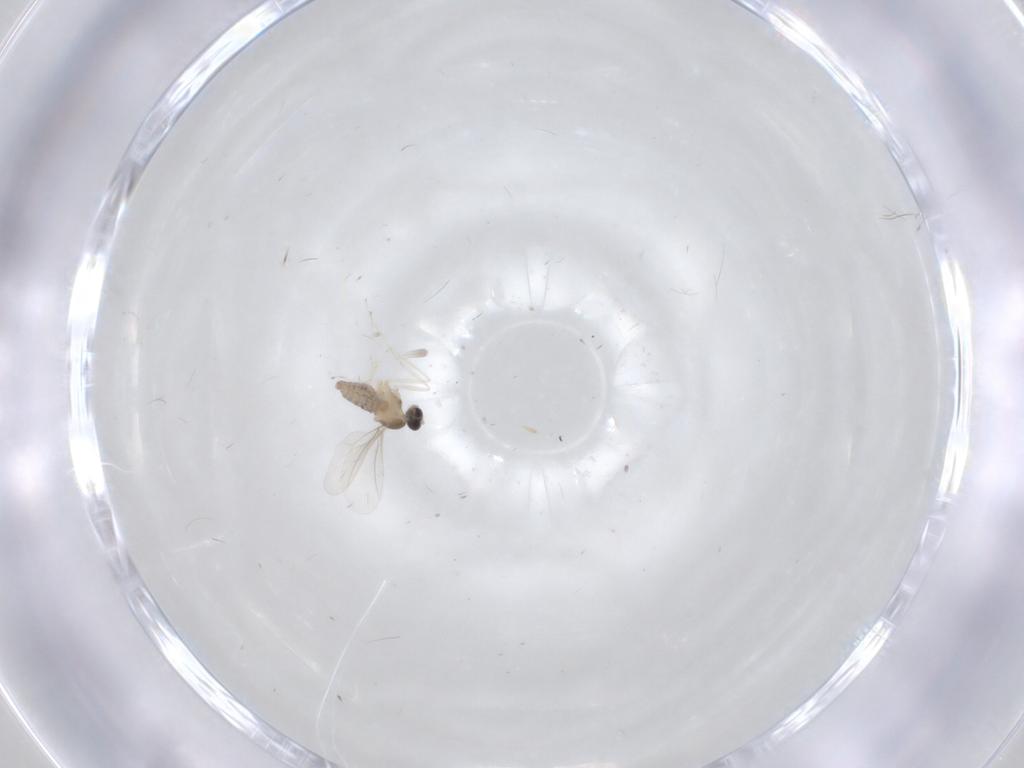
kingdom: Animalia
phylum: Arthropoda
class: Insecta
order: Diptera
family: Cecidomyiidae
